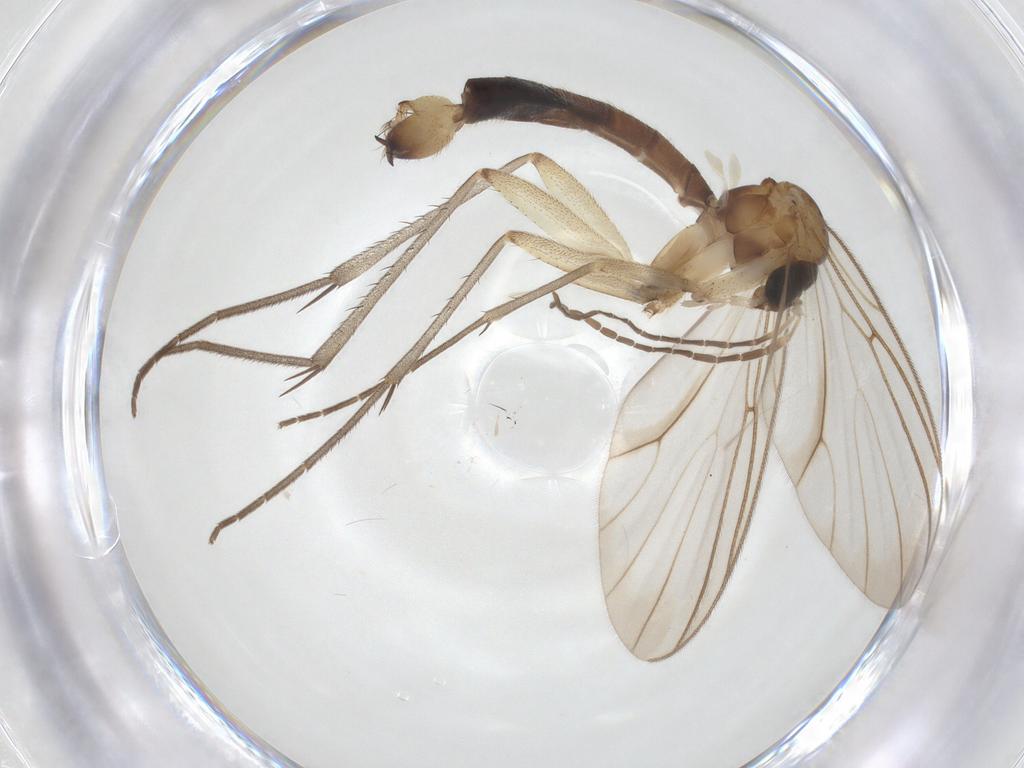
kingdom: Animalia
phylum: Arthropoda
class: Insecta
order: Diptera
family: Mycetophilidae
